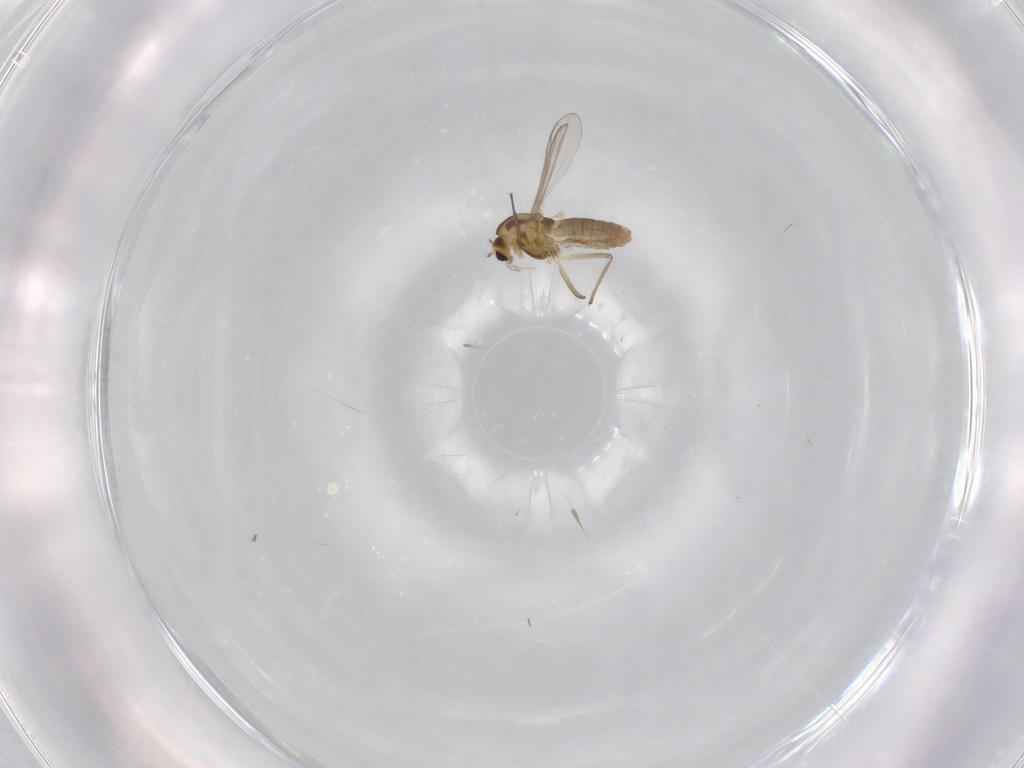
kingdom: Animalia
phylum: Arthropoda
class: Insecta
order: Diptera
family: Chironomidae
